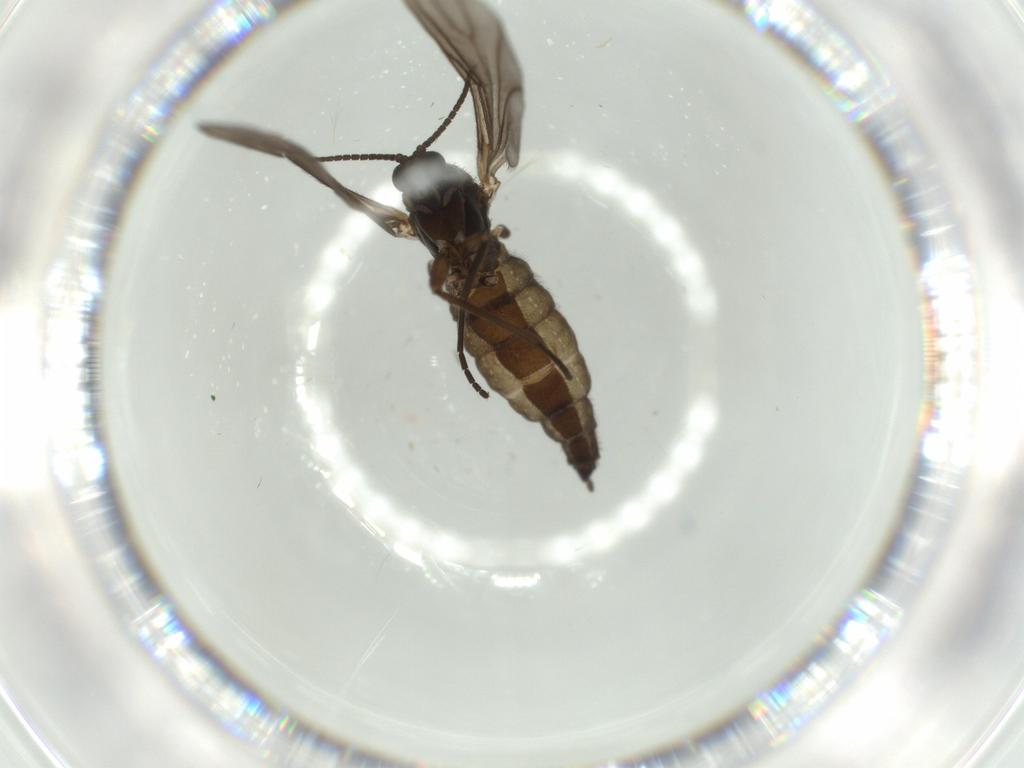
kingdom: Animalia
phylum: Arthropoda
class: Insecta
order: Diptera
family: Sciaridae
